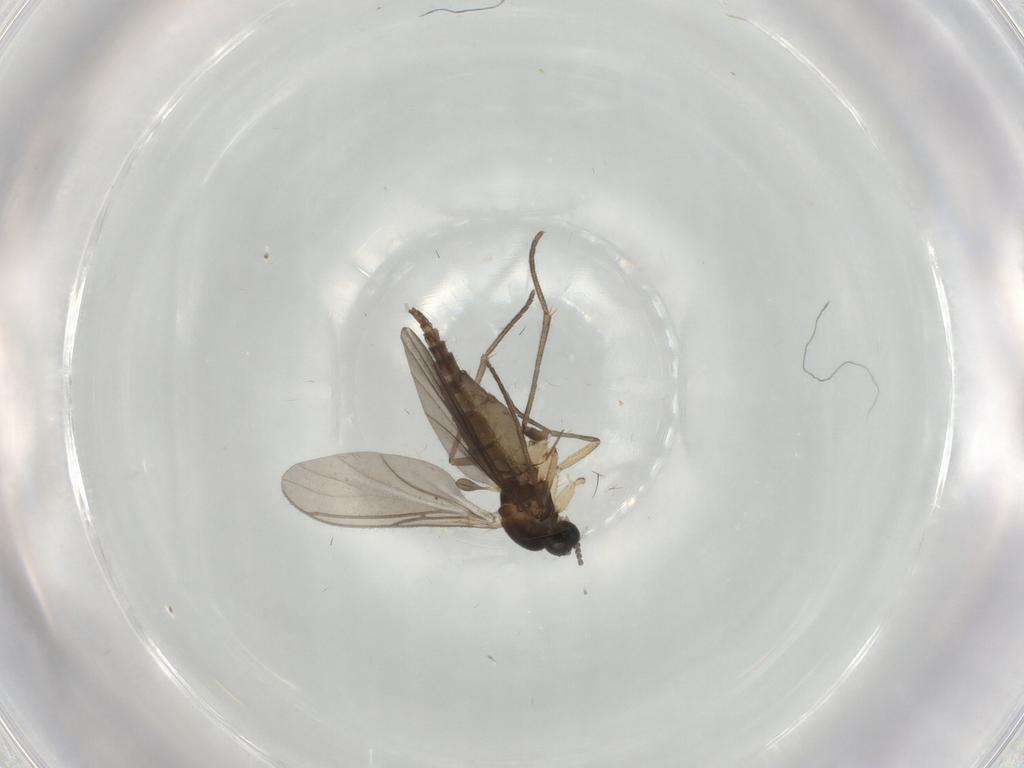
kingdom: Animalia
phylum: Arthropoda
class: Insecta
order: Diptera
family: Sciaridae
